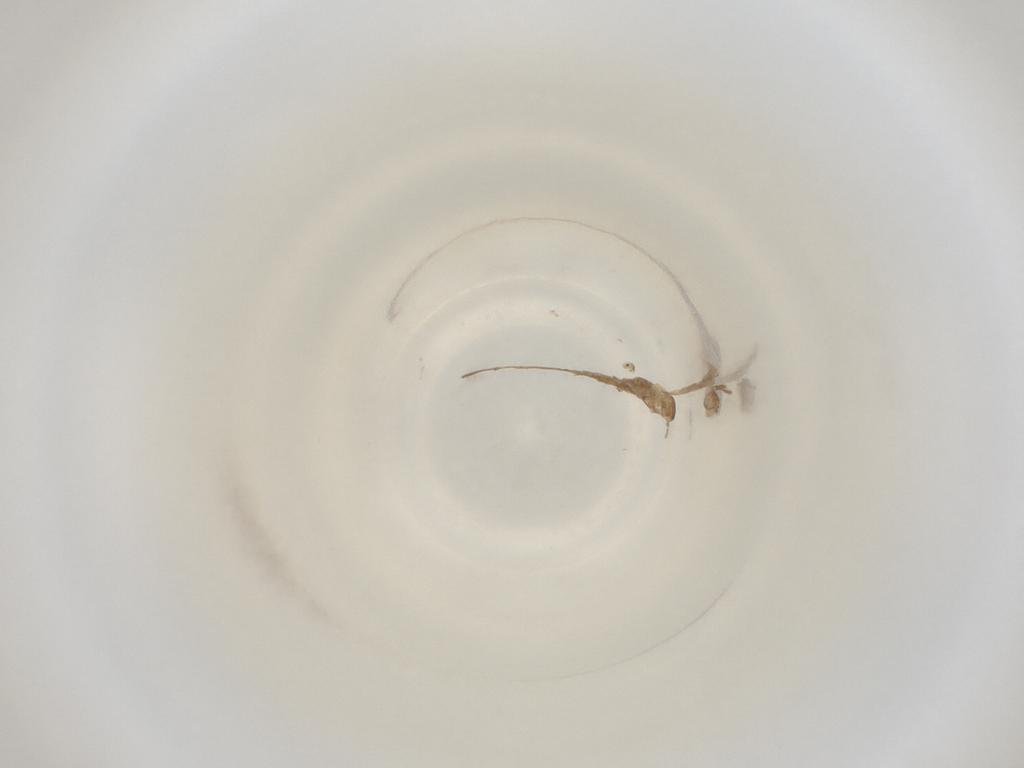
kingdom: Animalia
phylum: Arthropoda
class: Insecta
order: Diptera
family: Cecidomyiidae
